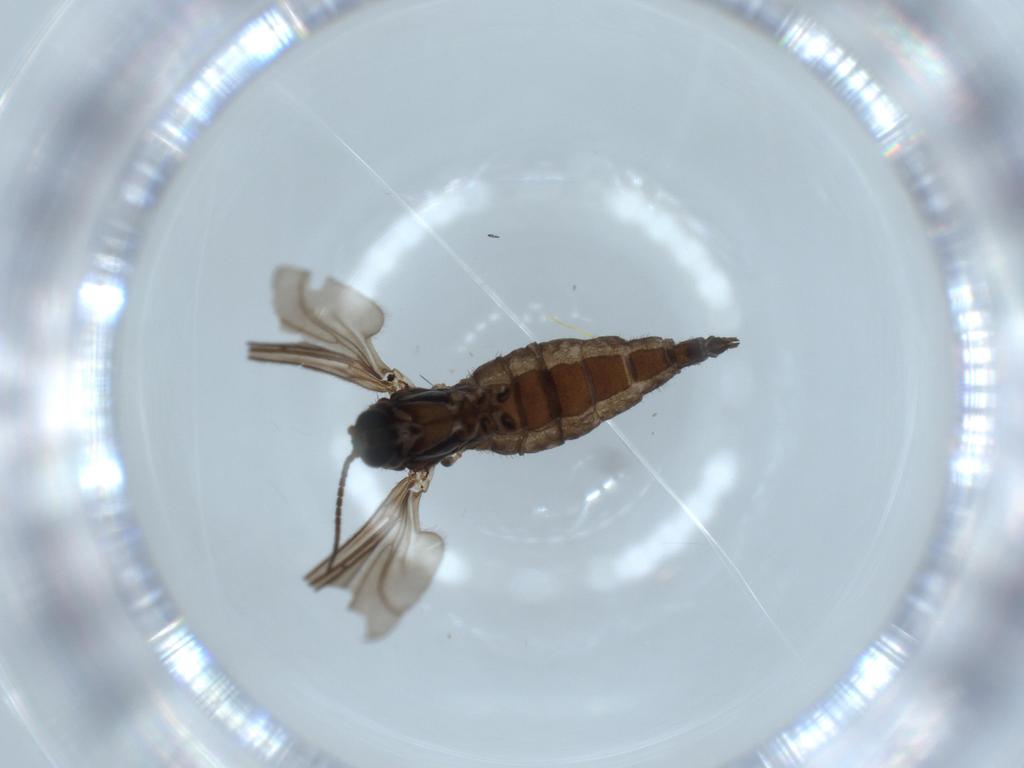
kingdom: Animalia
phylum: Arthropoda
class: Insecta
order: Diptera
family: Sciaridae
